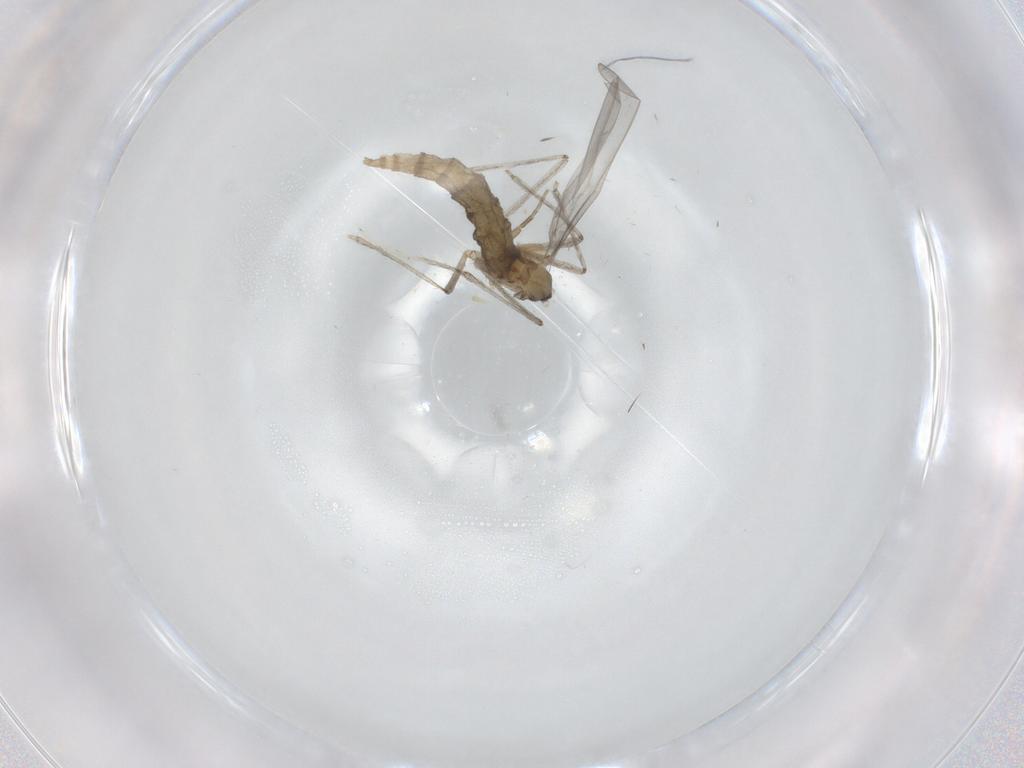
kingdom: Animalia
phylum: Arthropoda
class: Insecta
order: Diptera
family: Cecidomyiidae
